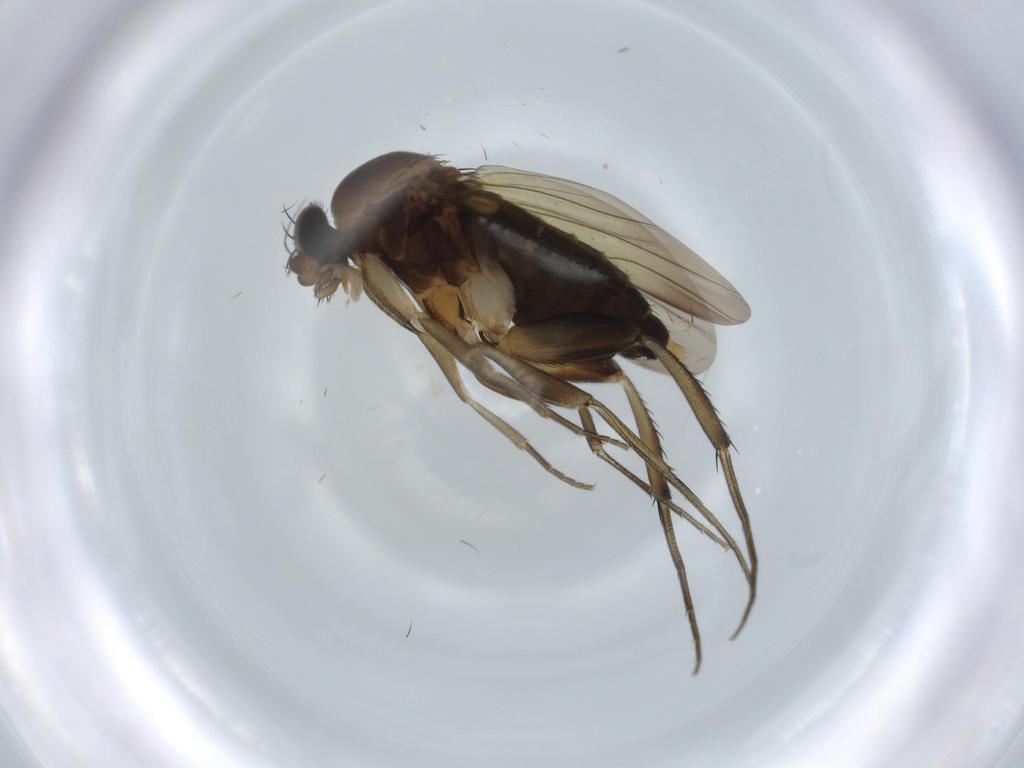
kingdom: Animalia
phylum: Arthropoda
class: Insecta
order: Diptera
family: Phoridae
